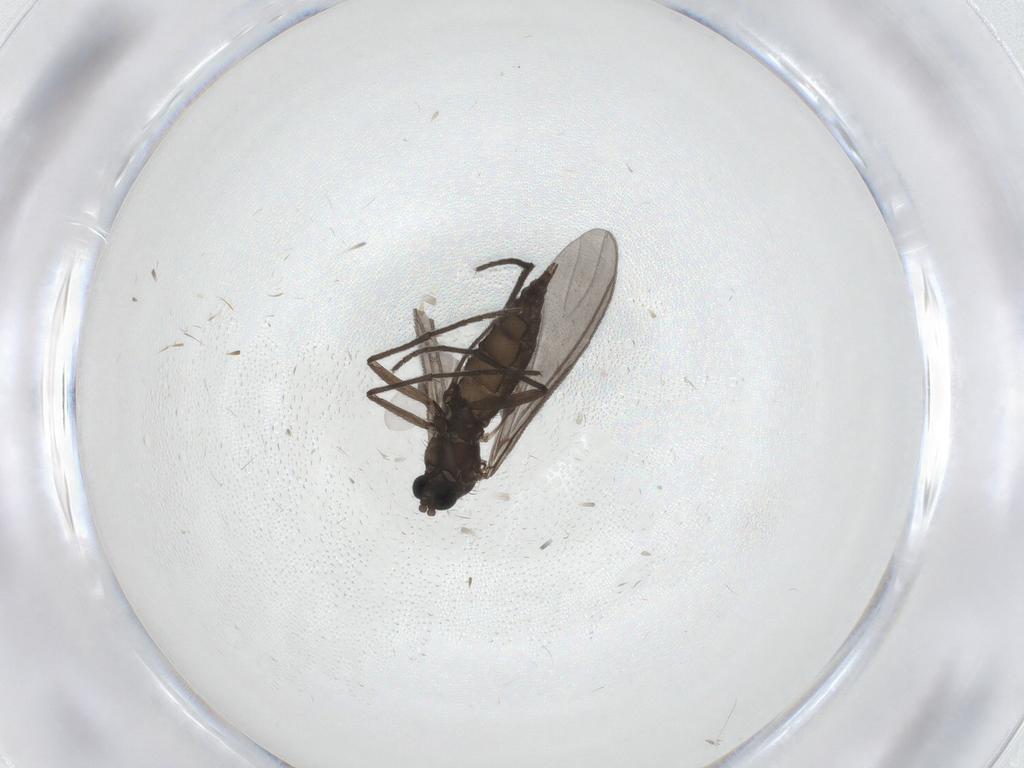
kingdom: Animalia
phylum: Arthropoda
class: Insecta
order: Diptera
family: Sciaridae
